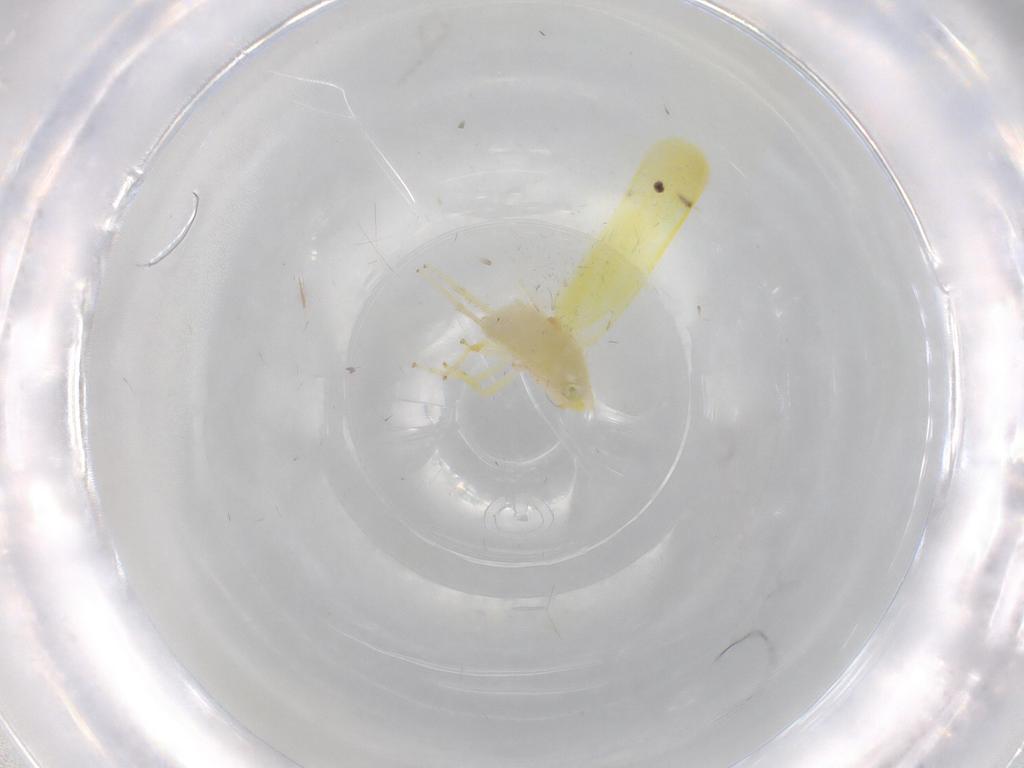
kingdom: Animalia
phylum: Arthropoda
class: Insecta
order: Hemiptera
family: Cicadellidae
